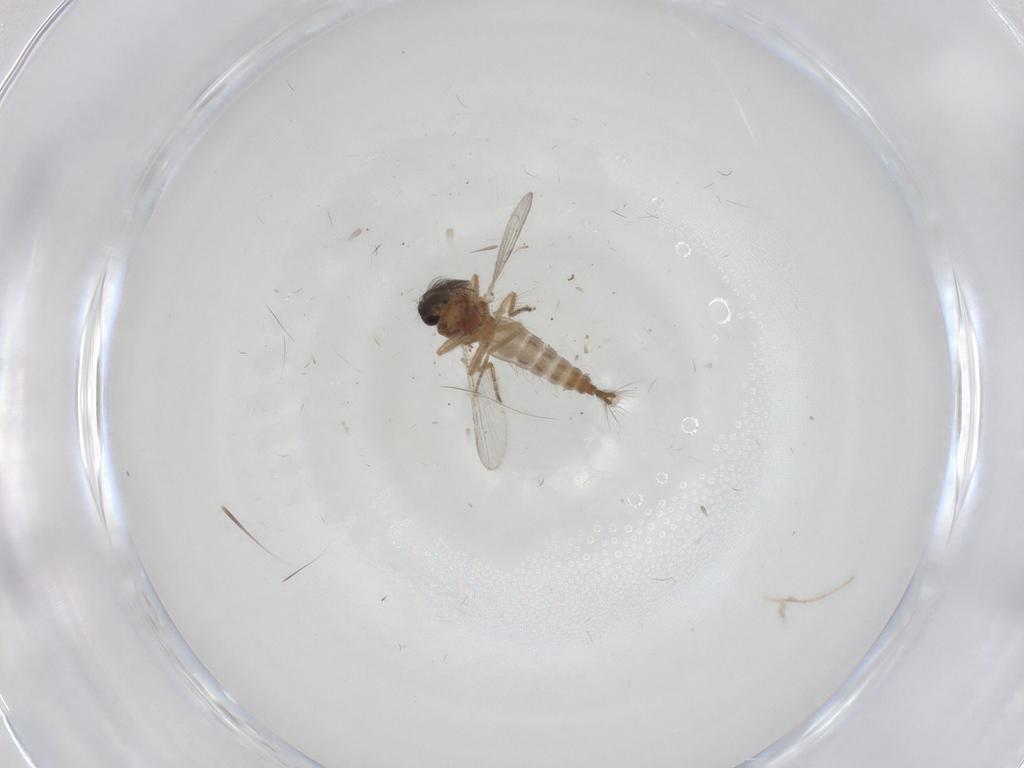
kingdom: Animalia
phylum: Arthropoda
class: Insecta
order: Diptera
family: Ceratopogonidae
